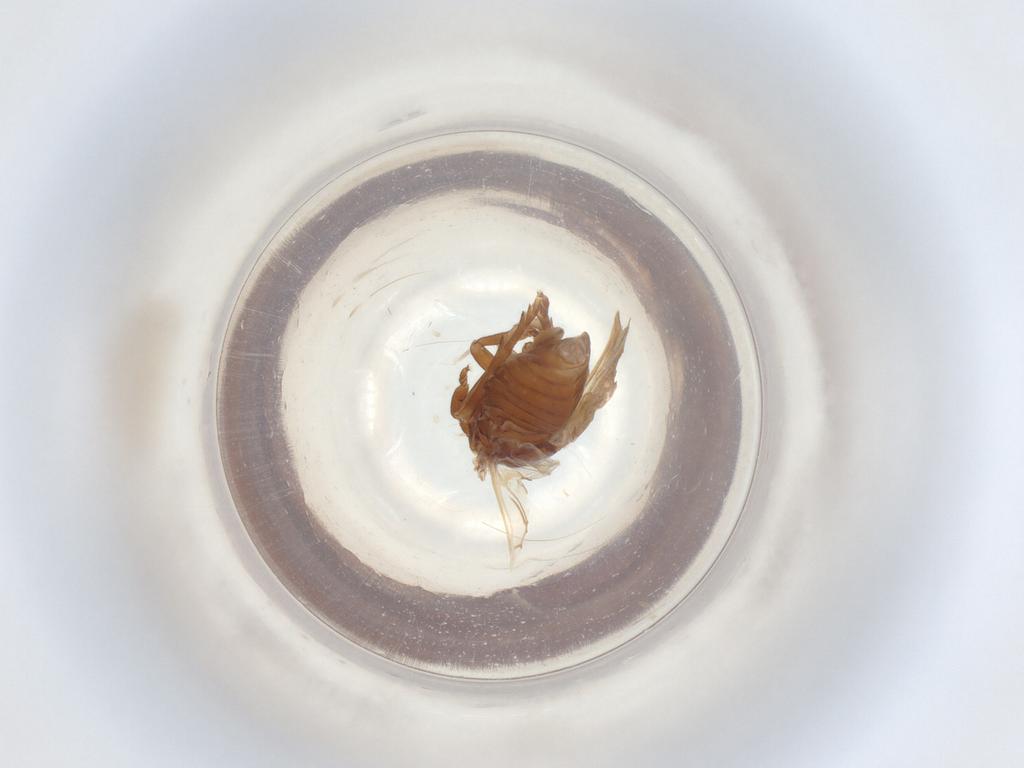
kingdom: Animalia
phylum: Arthropoda
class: Insecta
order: Hemiptera
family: Delphacidae
